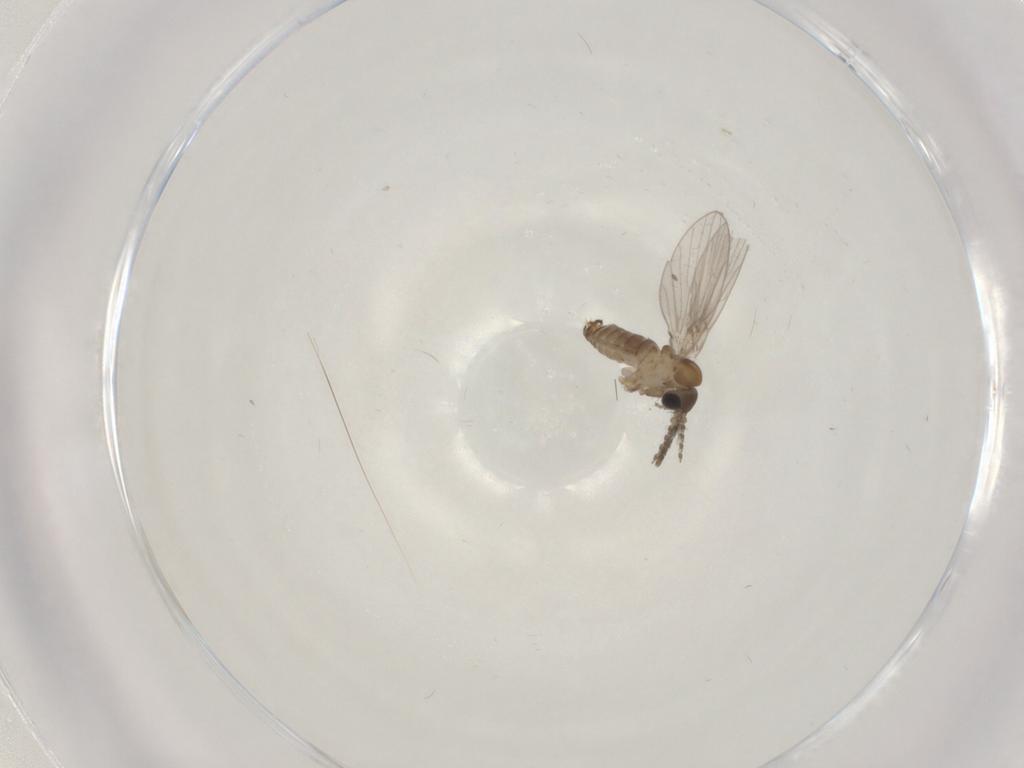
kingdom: Animalia
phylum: Arthropoda
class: Insecta
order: Diptera
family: Psychodidae
